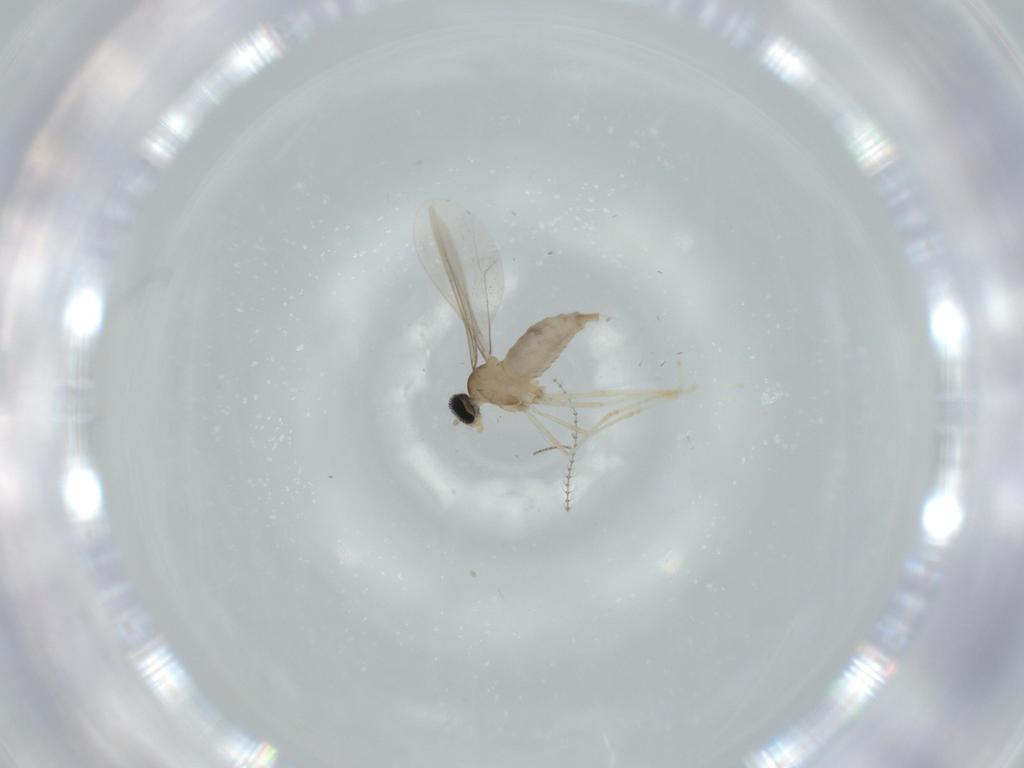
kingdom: Animalia
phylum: Arthropoda
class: Insecta
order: Diptera
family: Cecidomyiidae
